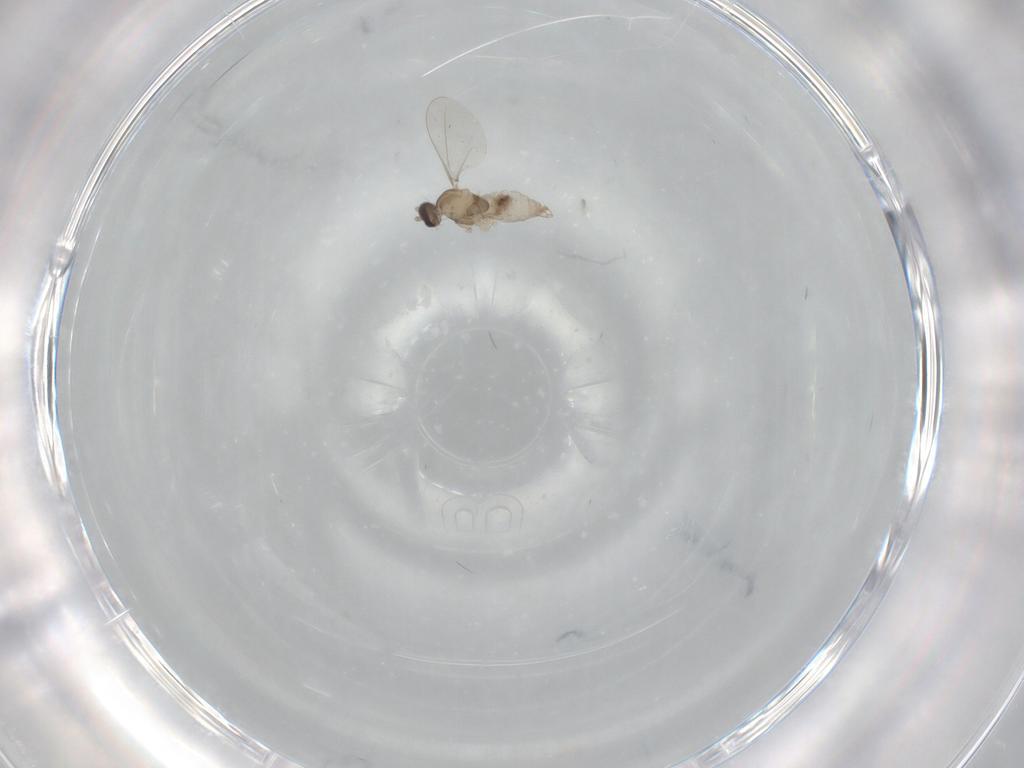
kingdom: Animalia
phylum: Arthropoda
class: Insecta
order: Diptera
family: Cecidomyiidae
